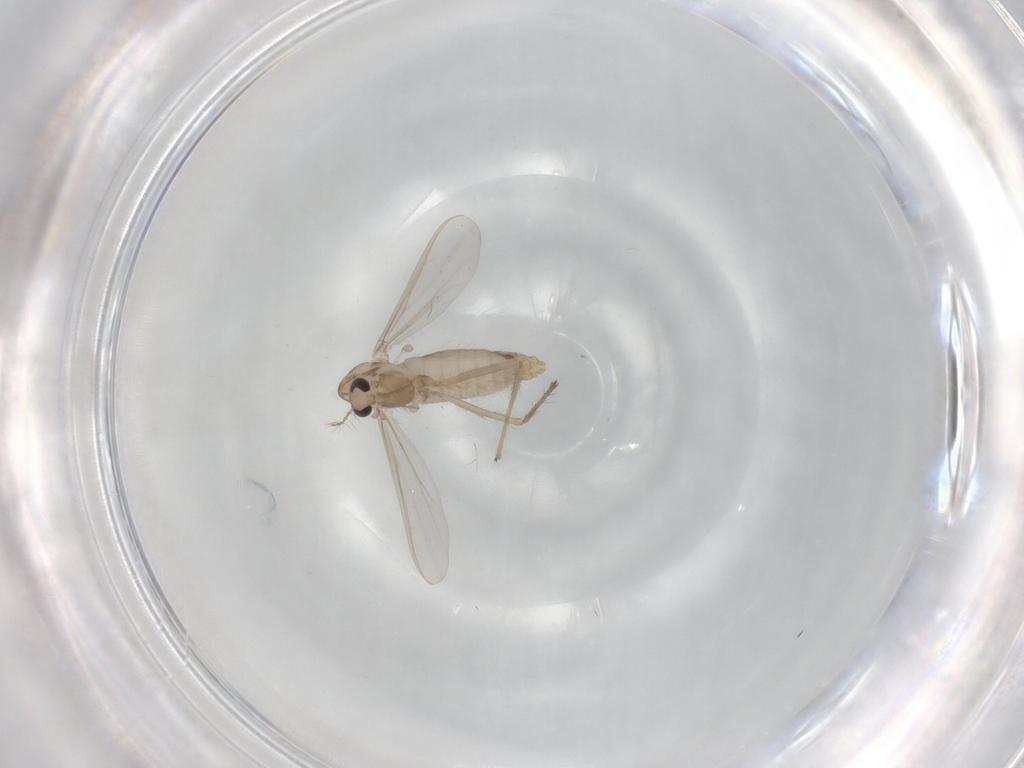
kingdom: Animalia
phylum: Arthropoda
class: Insecta
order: Diptera
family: Chironomidae
